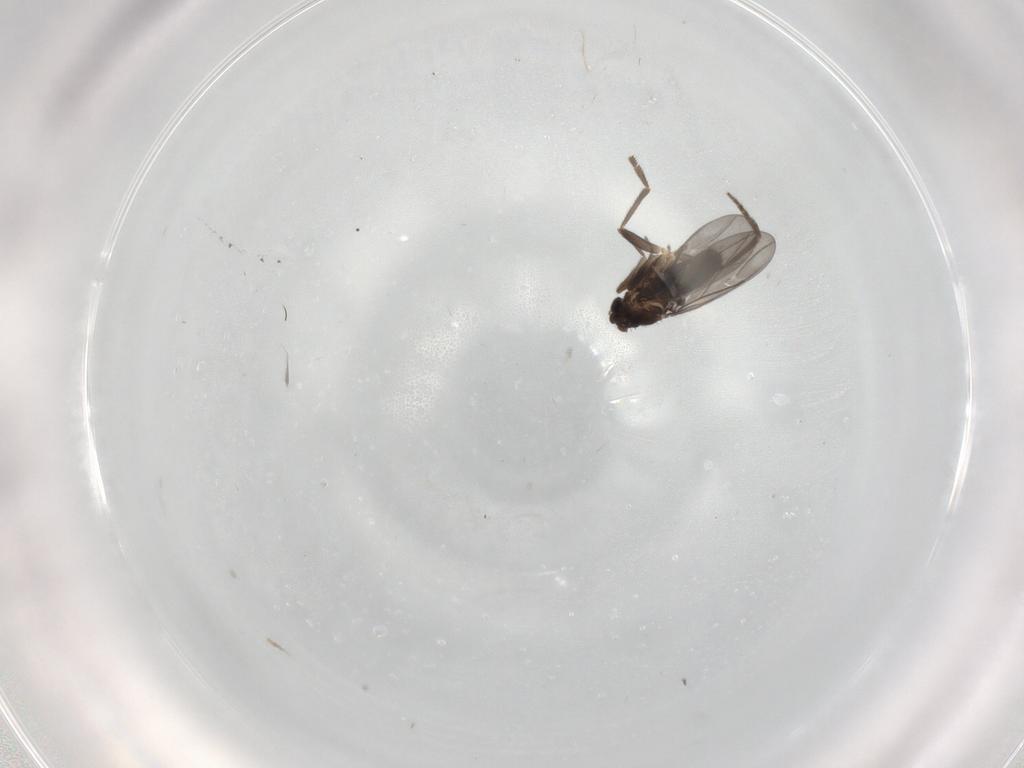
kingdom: Animalia
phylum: Arthropoda
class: Insecta
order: Diptera
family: Phoridae
